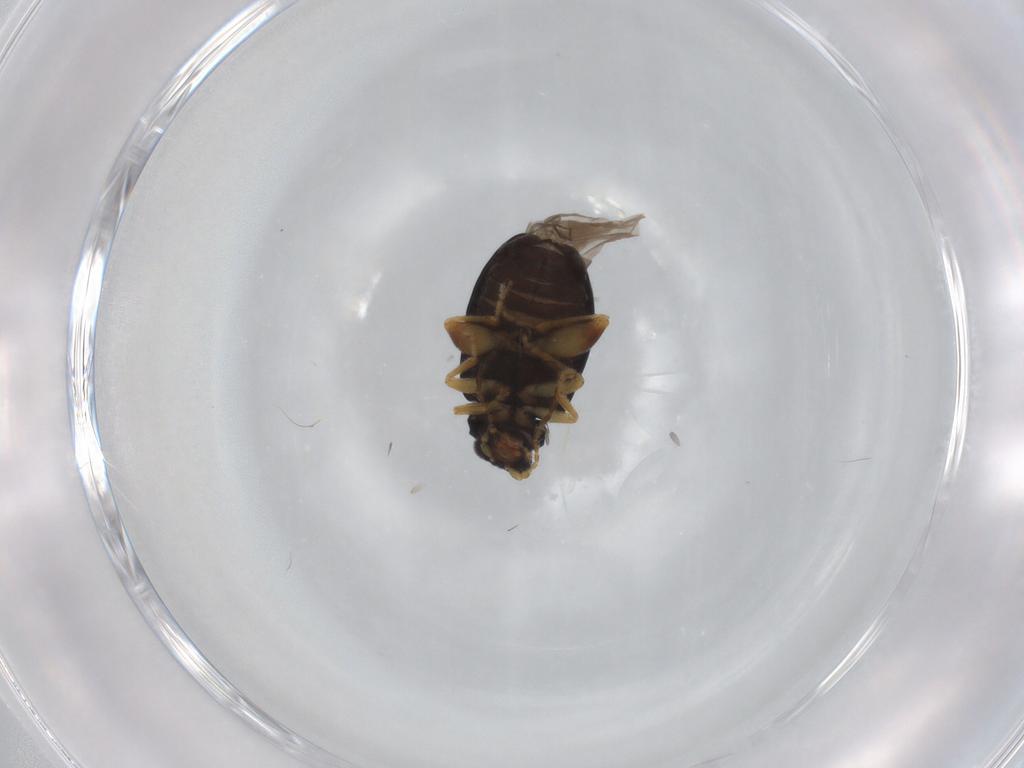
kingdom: Animalia
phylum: Arthropoda
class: Insecta
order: Coleoptera
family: Chrysomelidae
